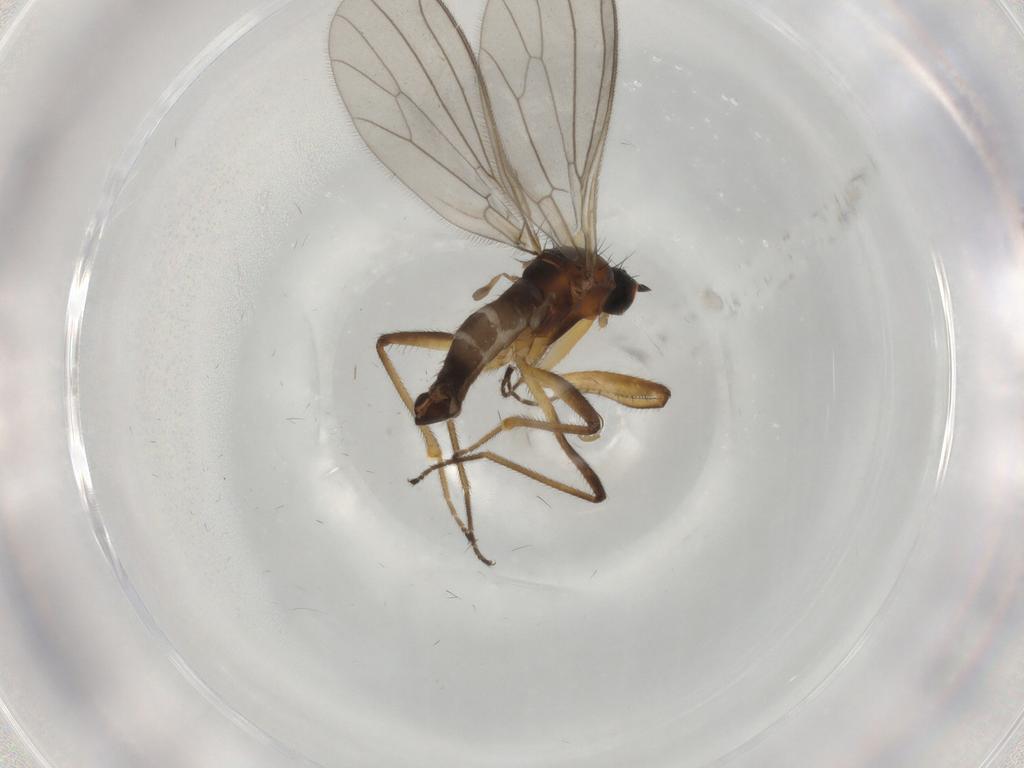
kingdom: Animalia
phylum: Arthropoda
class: Insecta
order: Diptera
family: Empididae
